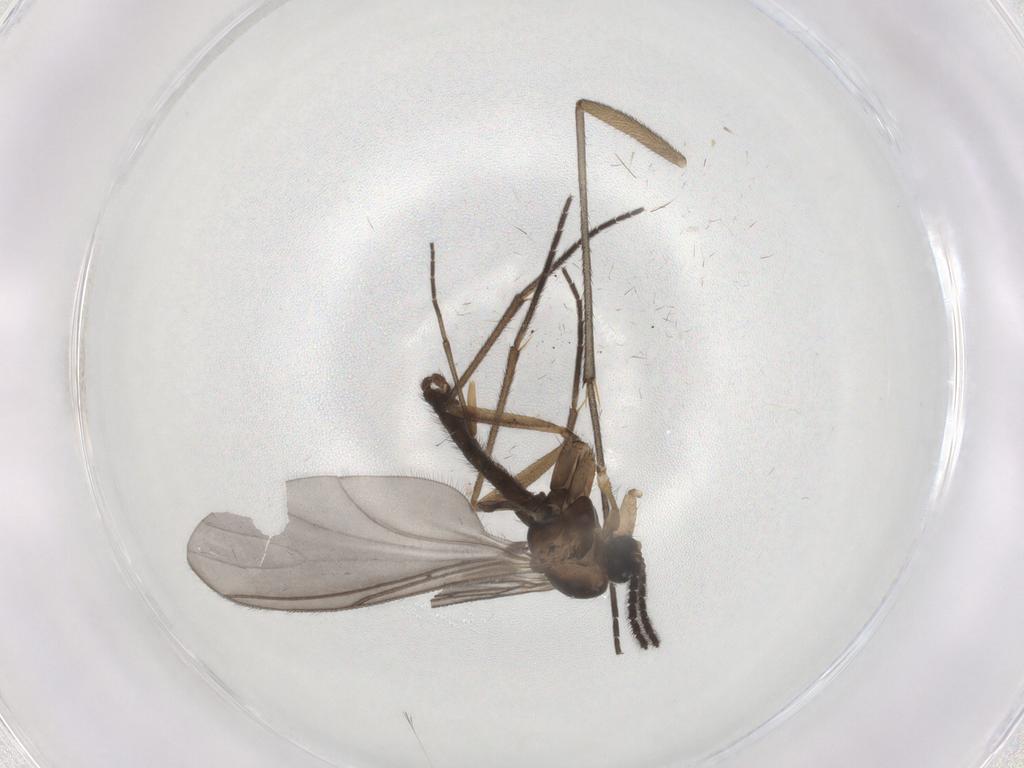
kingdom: Animalia
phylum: Arthropoda
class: Insecta
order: Diptera
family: Sciaridae
